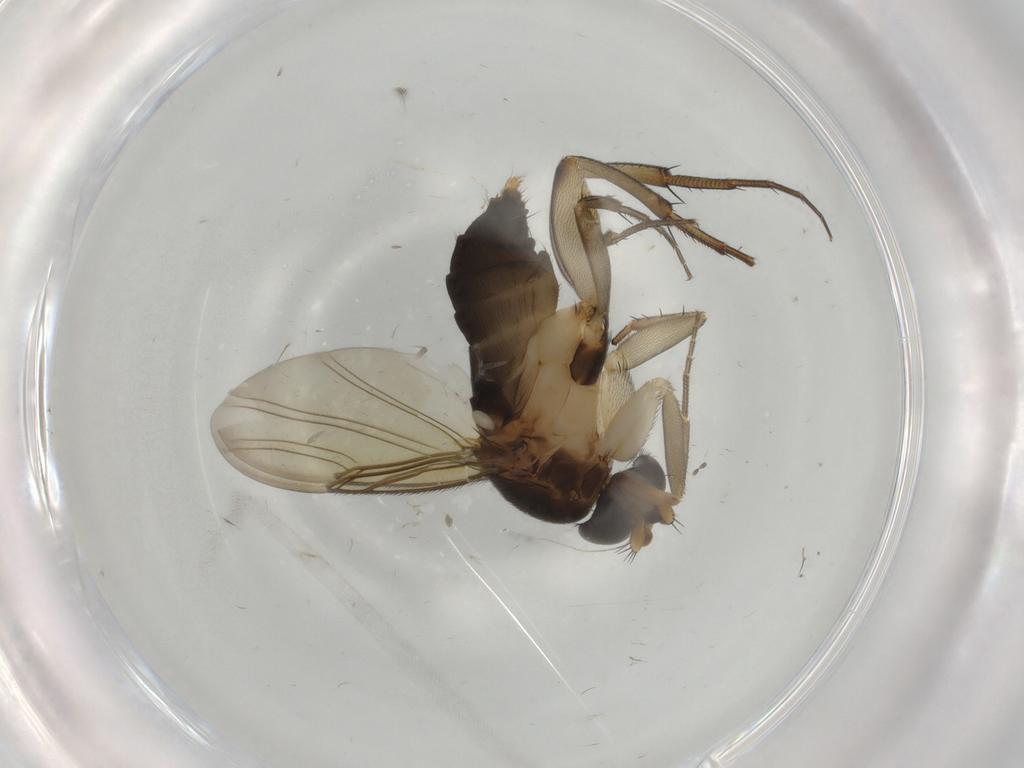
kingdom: Animalia
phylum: Arthropoda
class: Insecta
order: Diptera
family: Phoridae
